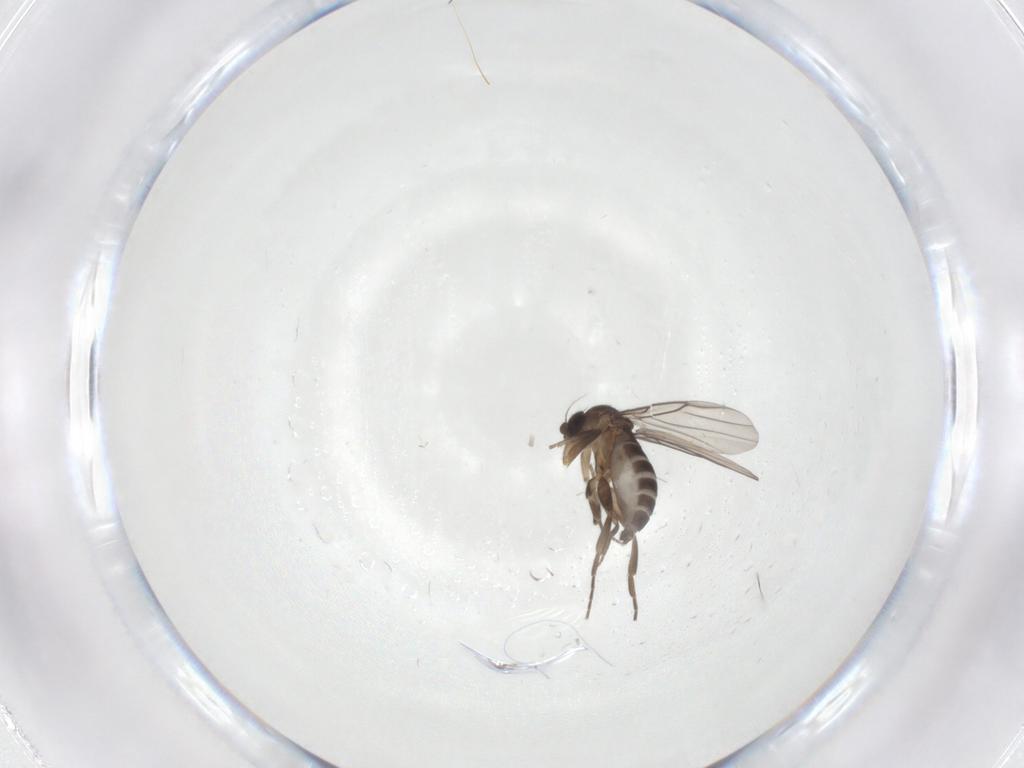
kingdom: Animalia
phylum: Arthropoda
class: Insecta
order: Diptera
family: Phoridae
